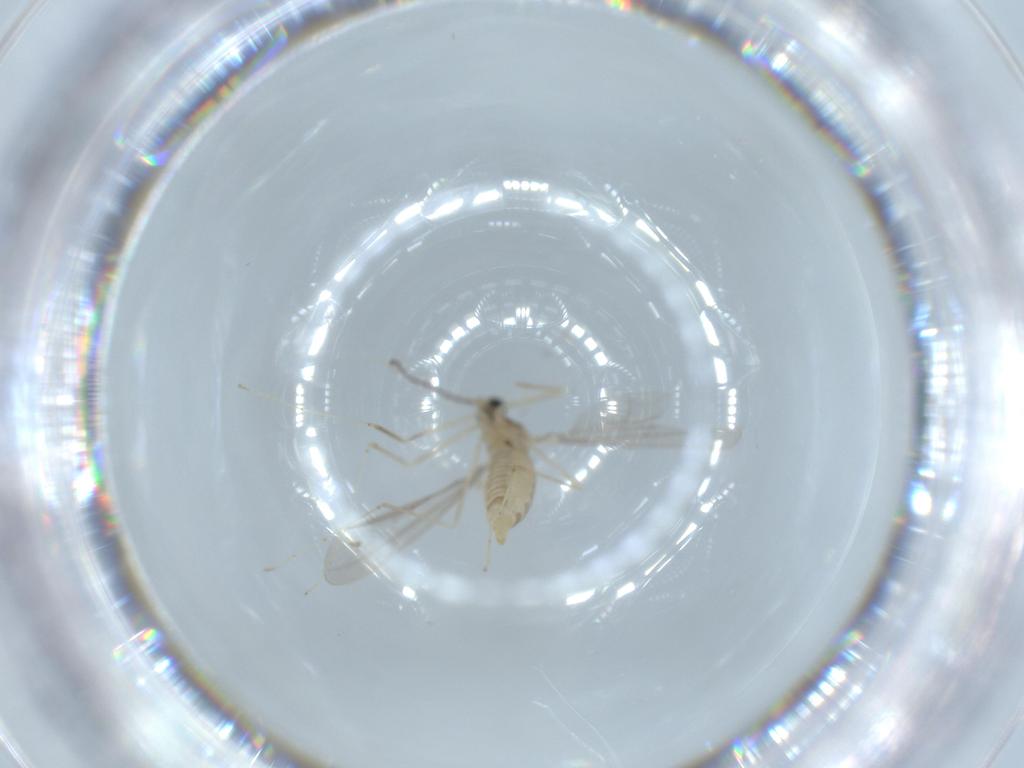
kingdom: Animalia
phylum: Arthropoda
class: Insecta
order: Diptera
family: Cecidomyiidae
